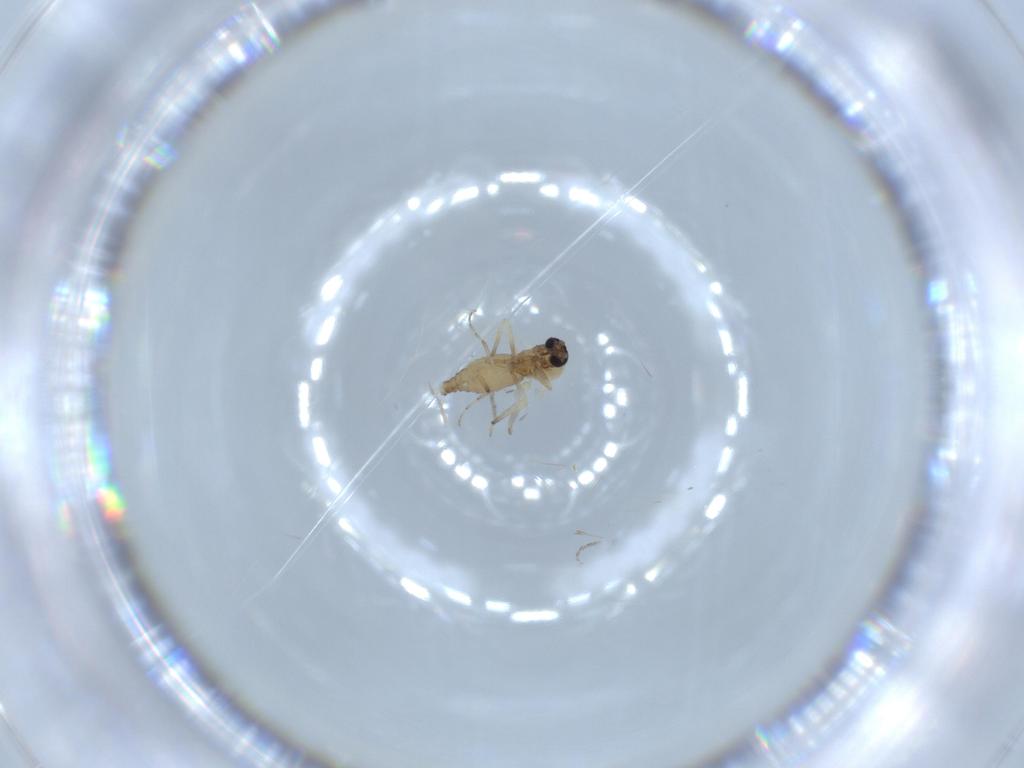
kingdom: Animalia
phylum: Arthropoda
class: Insecta
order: Diptera
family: Ceratopogonidae
